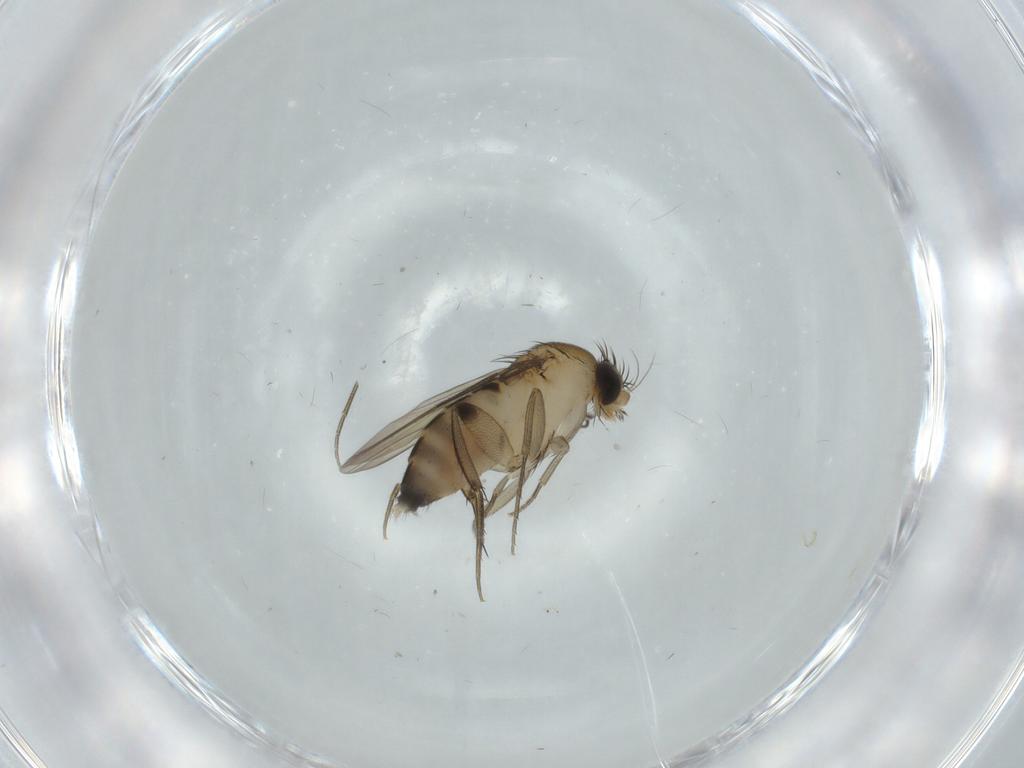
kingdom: Animalia
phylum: Arthropoda
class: Insecta
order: Diptera
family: Phoridae
